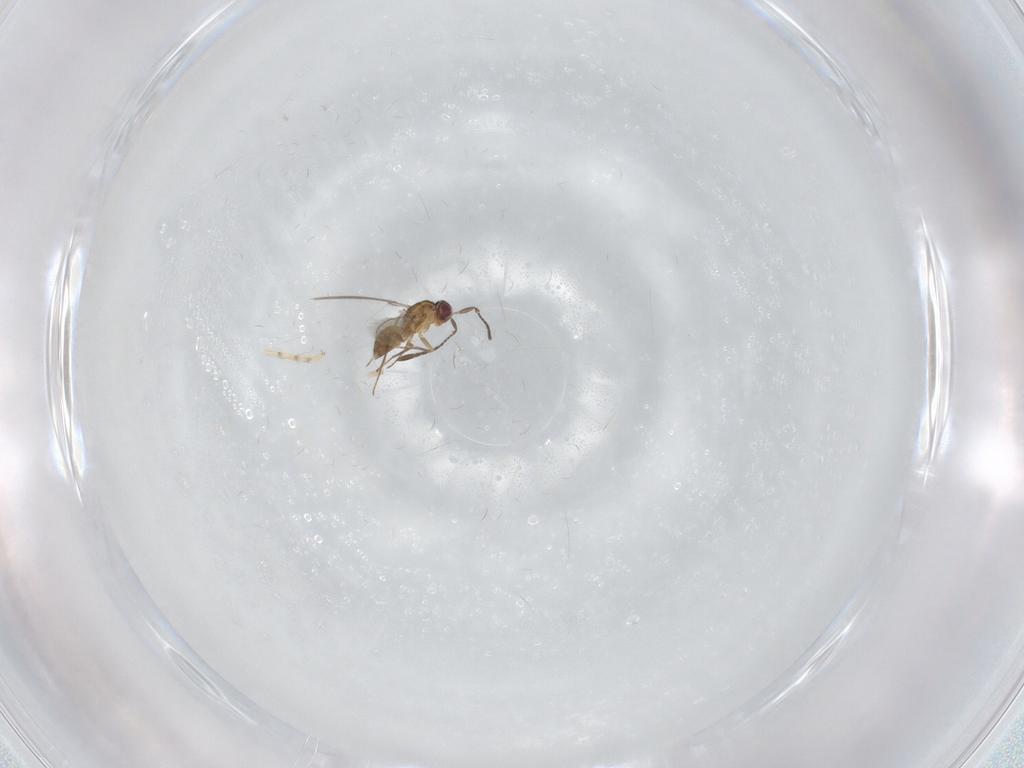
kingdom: Animalia
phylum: Arthropoda
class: Insecta
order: Hymenoptera
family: Mymaridae
